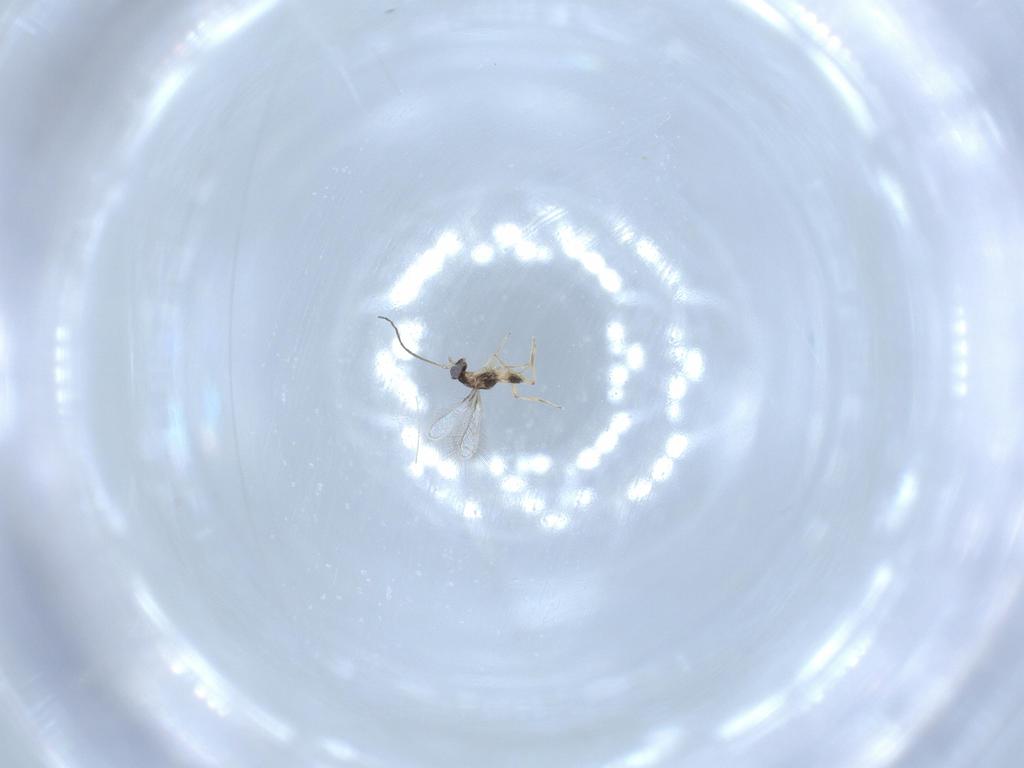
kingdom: Animalia
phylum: Arthropoda
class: Insecta
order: Hymenoptera
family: Mymaridae
